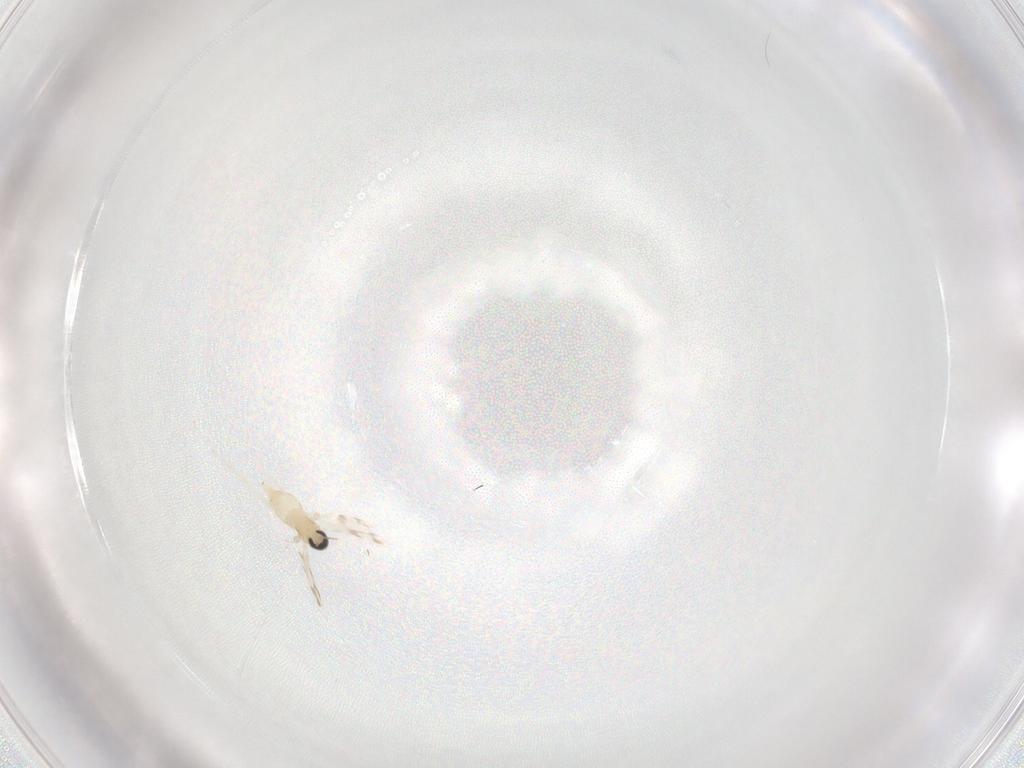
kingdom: Animalia
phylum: Arthropoda
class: Insecta
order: Diptera
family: Cecidomyiidae
